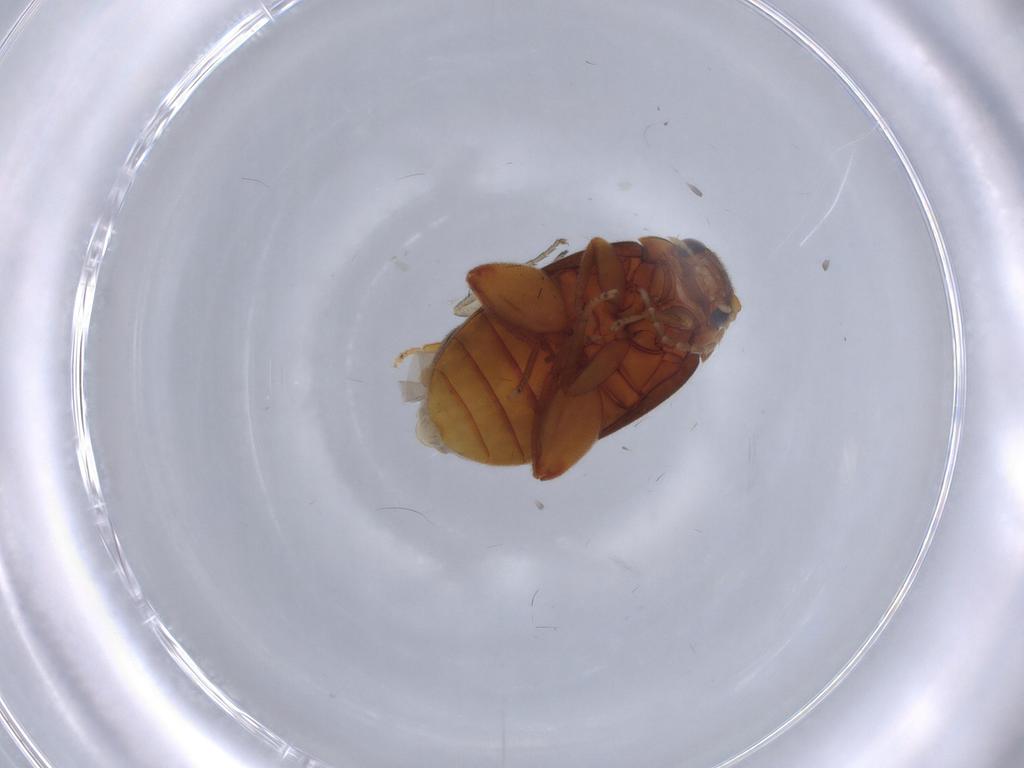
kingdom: Animalia
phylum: Arthropoda
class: Insecta
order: Coleoptera
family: Scirtidae
